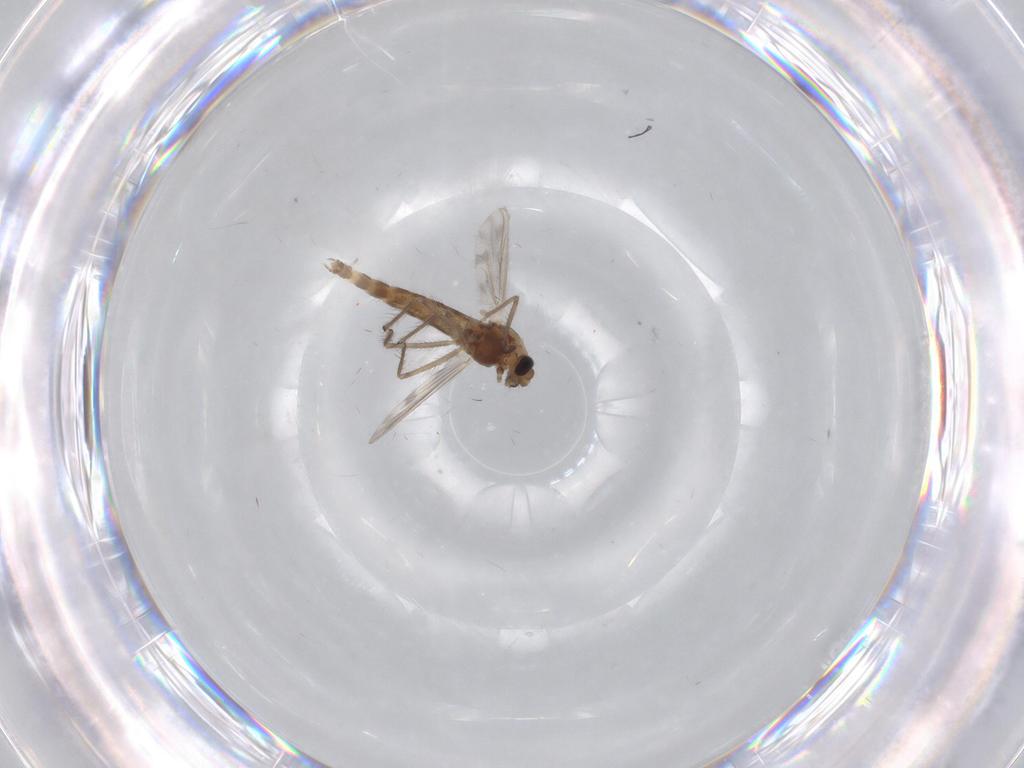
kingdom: Animalia
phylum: Arthropoda
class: Insecta
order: Diptera
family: Chironomidae
